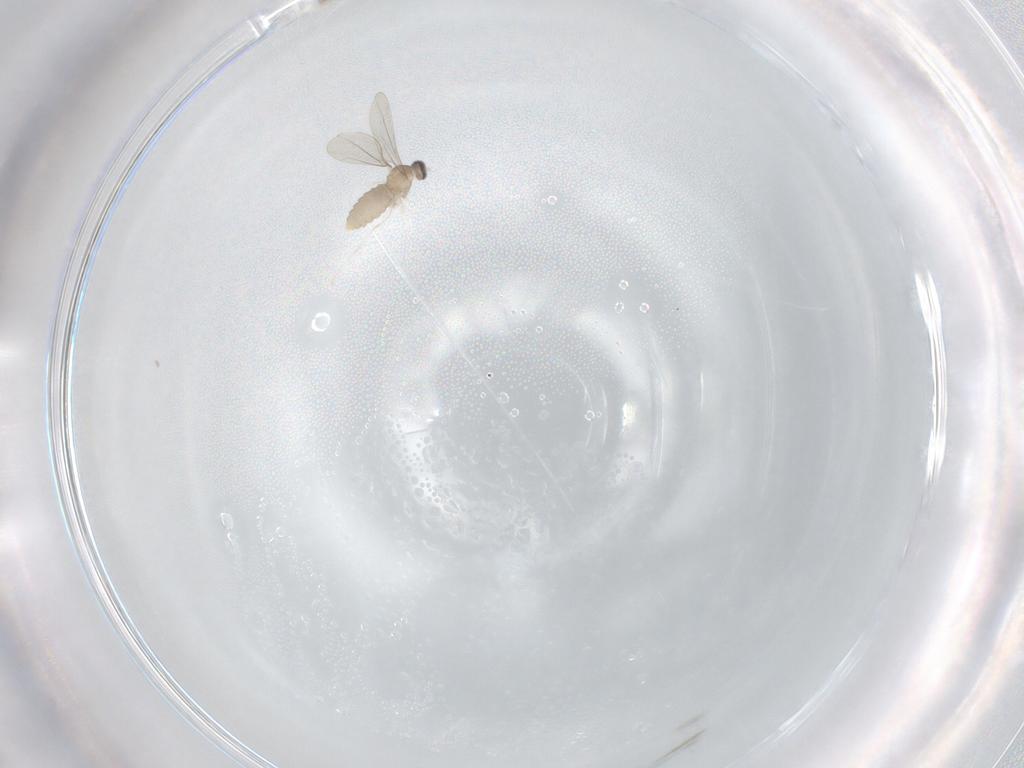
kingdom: Animalia
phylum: Arthropoda
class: Insecta
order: Diptera
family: Cecidomyiidae
